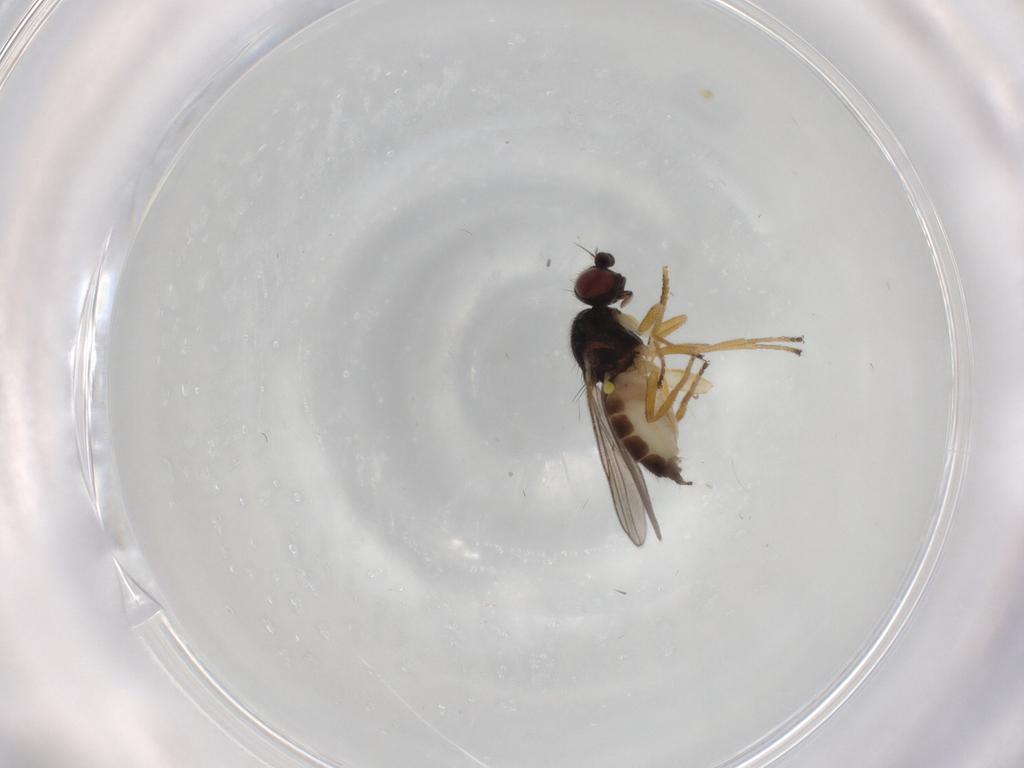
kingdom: Animalia
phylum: Arthropoda
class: Insecta
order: Diptera
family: Chloropidae
